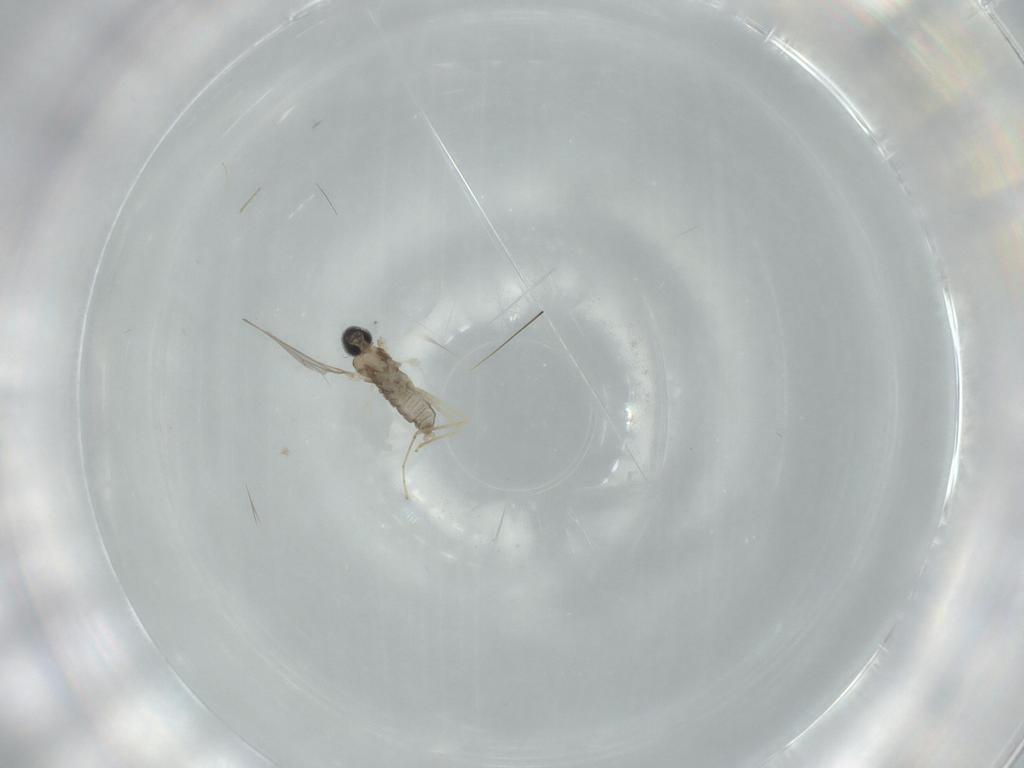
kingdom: Animalia
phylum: Arthropoda
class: Insecta
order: Diptera
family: Cecidomyiidae
